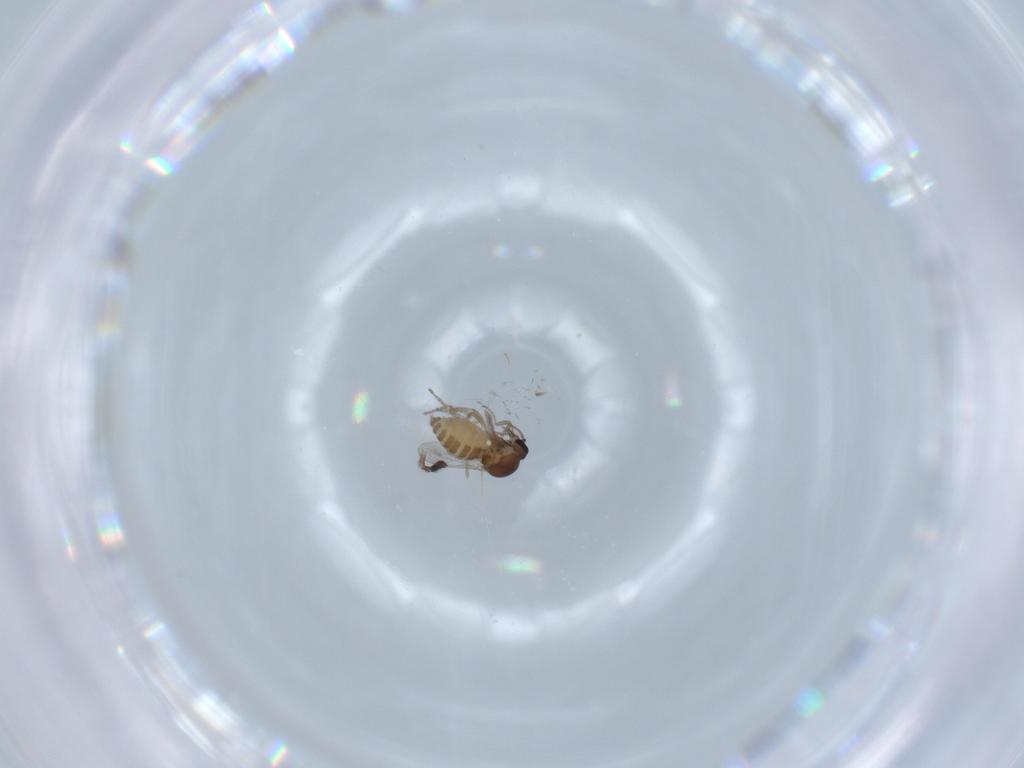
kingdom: Animalia
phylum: Arthropoda
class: Insecta
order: Diptera
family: Ceratopogonidae
